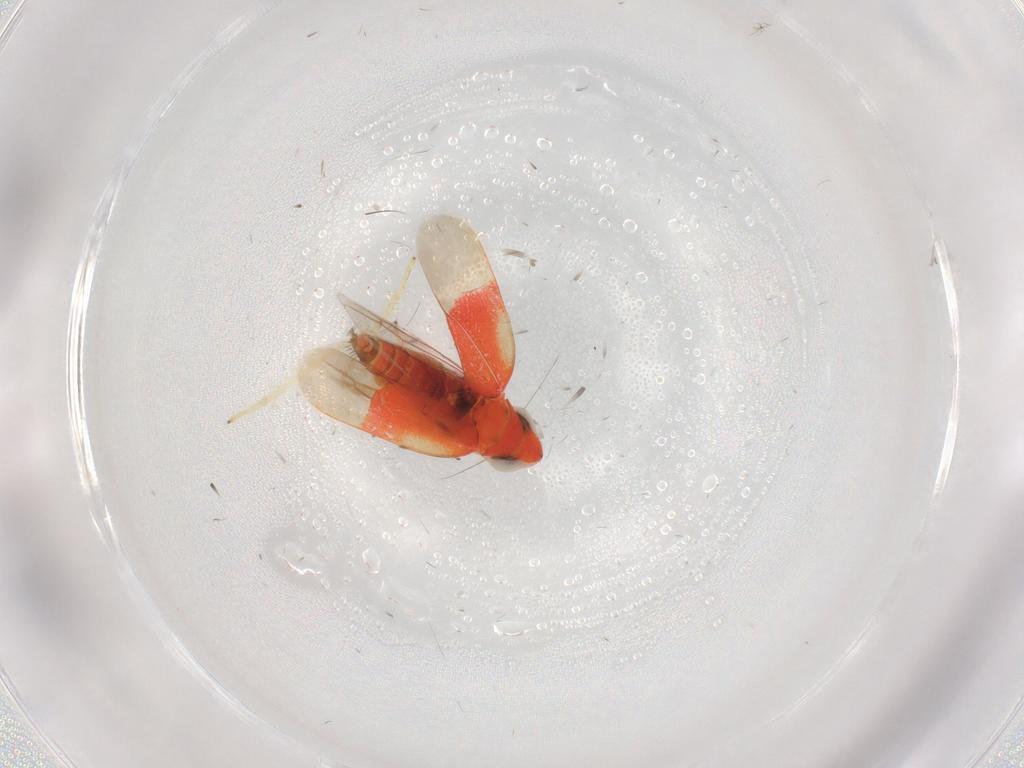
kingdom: Animalia
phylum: Arthropoda
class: Insecta
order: Hemiptera
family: Cicadellidae
